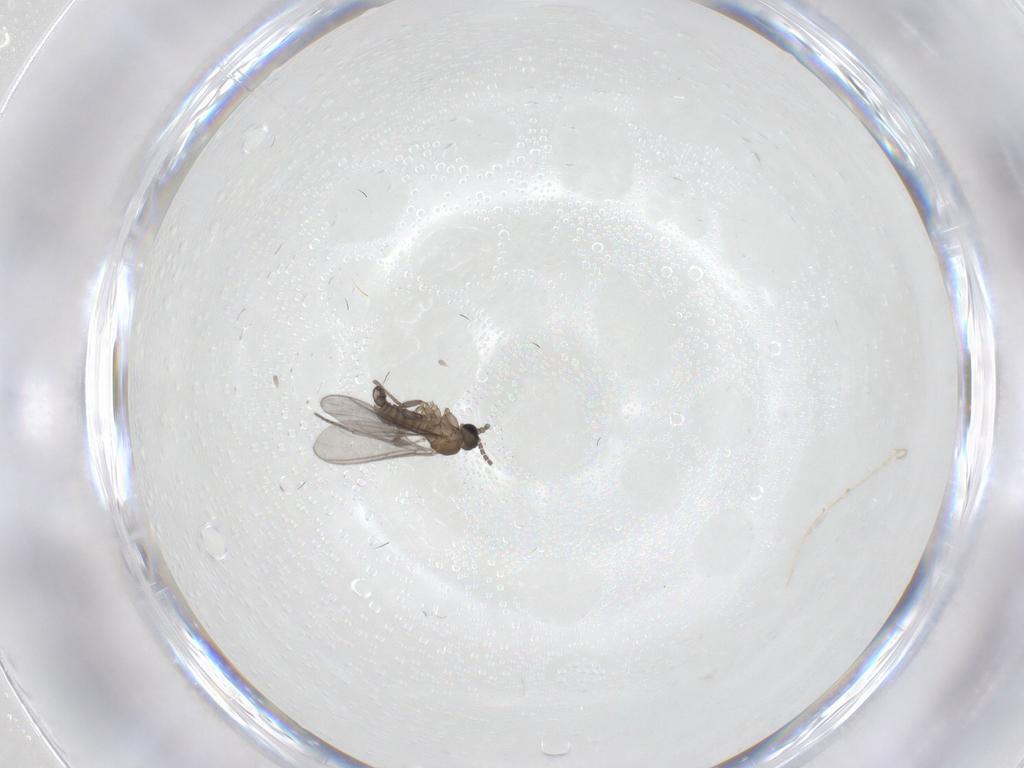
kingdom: Animalia
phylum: Arthropoda
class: Insecta
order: Diptera
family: Sciaridae
